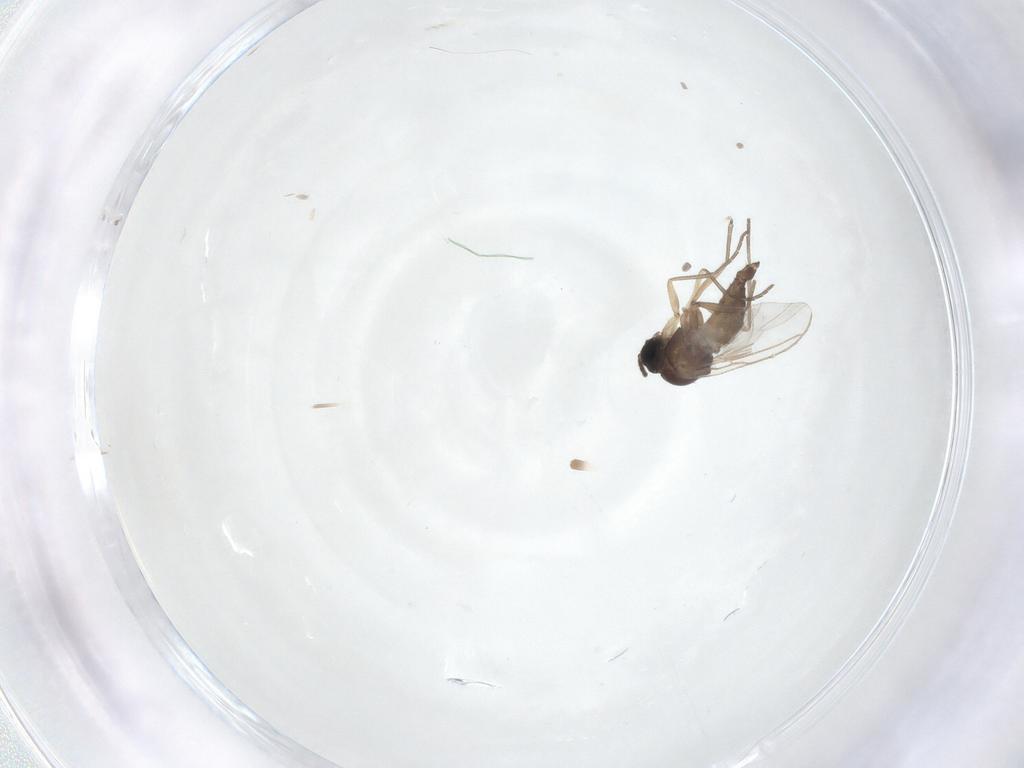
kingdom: Animalia
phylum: Arthropoda
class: Insecta
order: Diptera
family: Sciaridae
